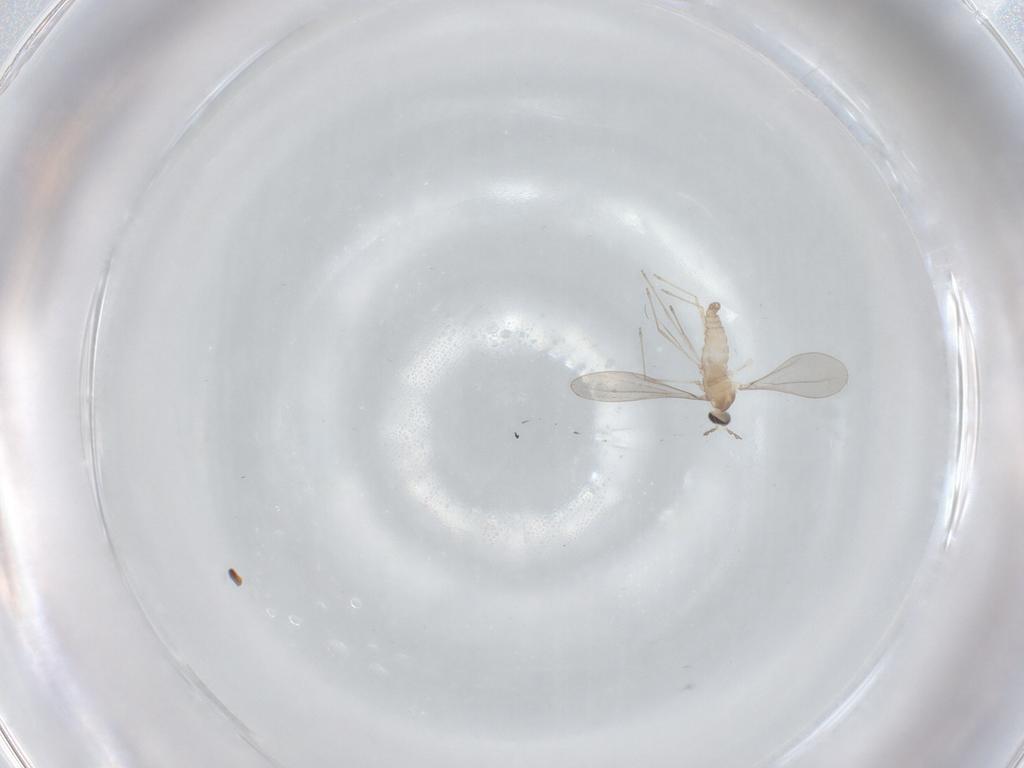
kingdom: Animalia
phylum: Arthropoda
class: Insecta
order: Diptera
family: Cecidomyiidae
